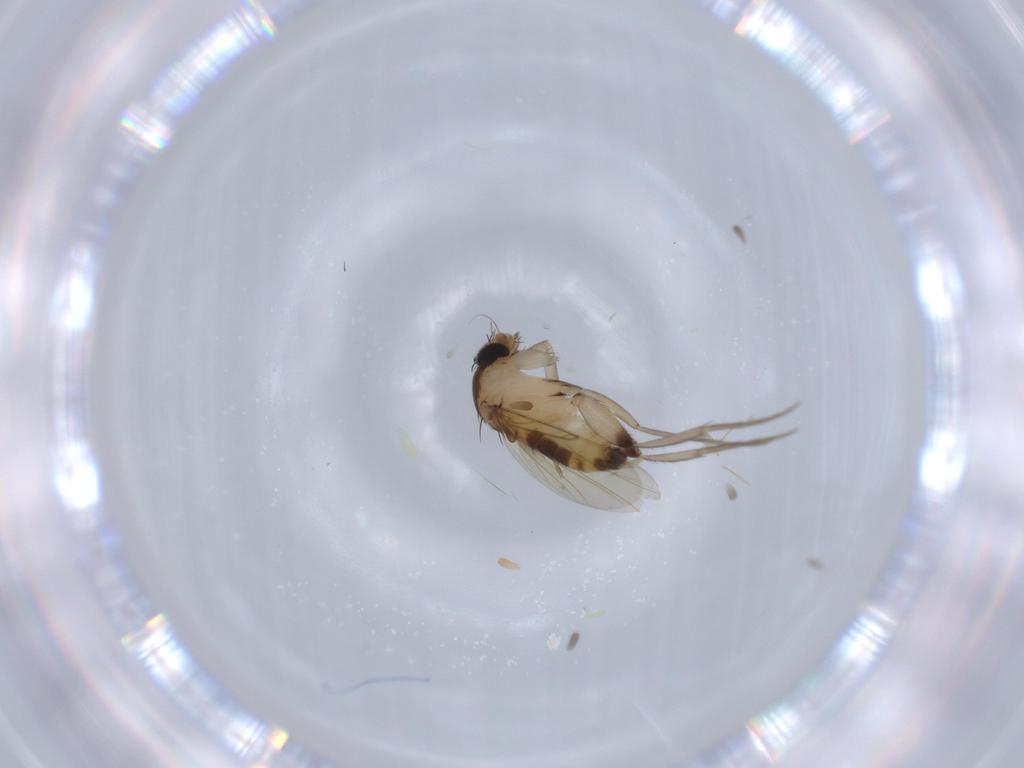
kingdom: Animalia
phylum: Arthropoda
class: Insecta
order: Diptera
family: Phoridae
